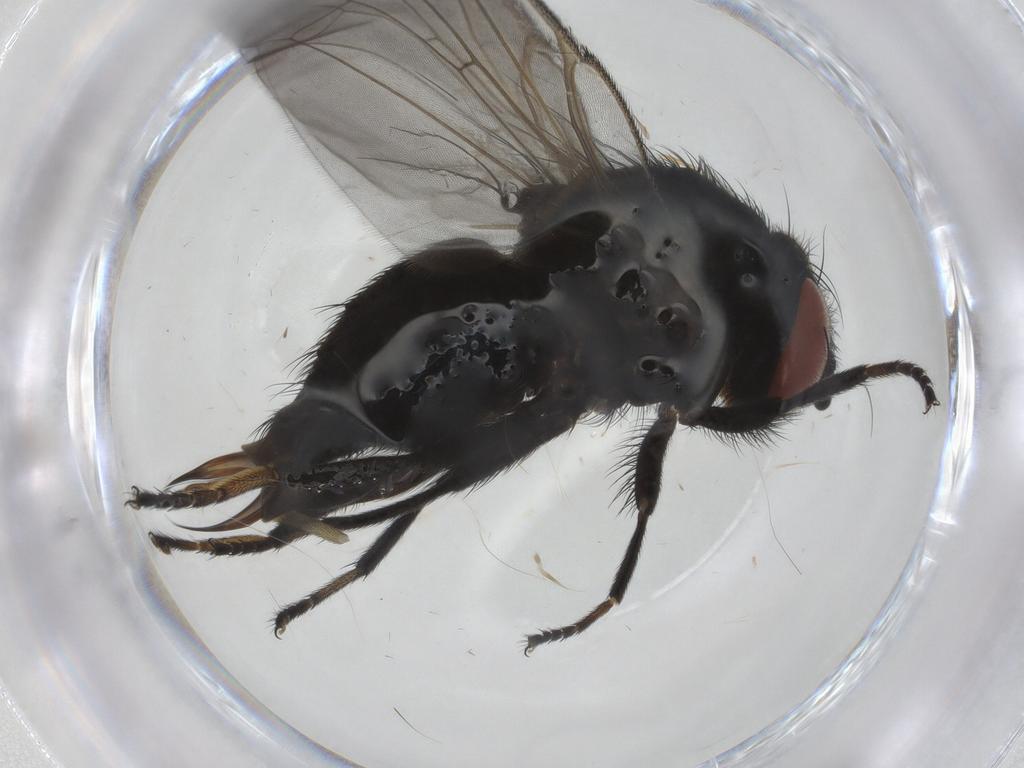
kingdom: Animalia
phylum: Arthropoda
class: Insecta
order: Diptera
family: Lonchaeidae
